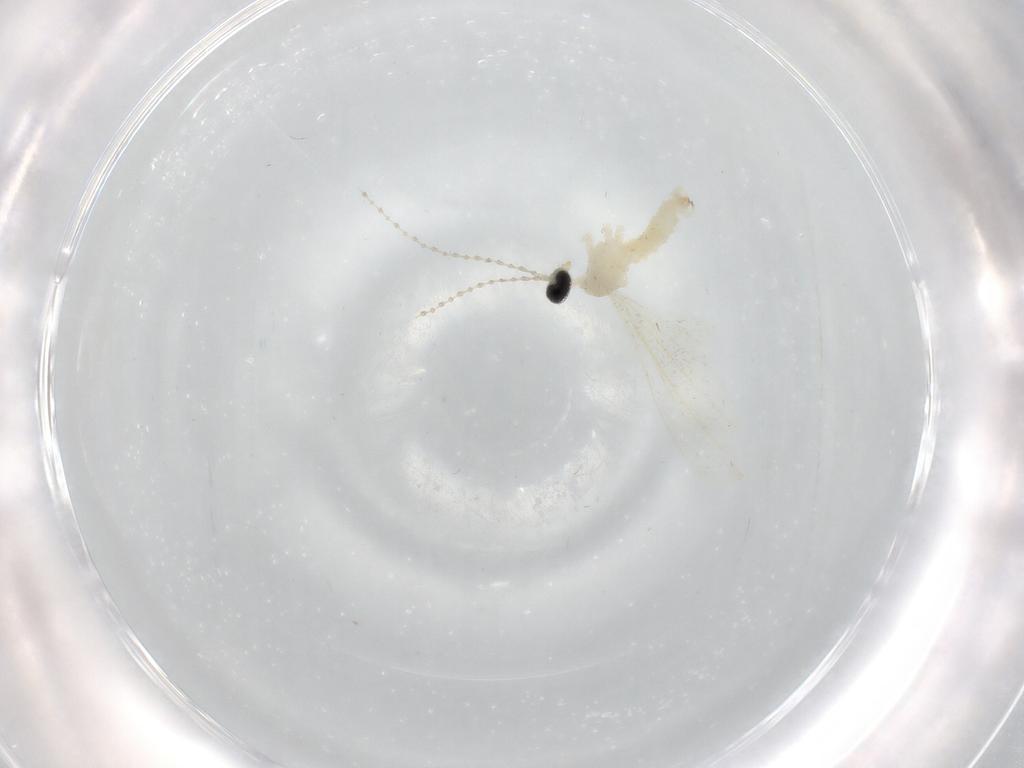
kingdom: Animalia
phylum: Arthropoda
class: Insecta
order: Diptera
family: Cecidomyiidae
